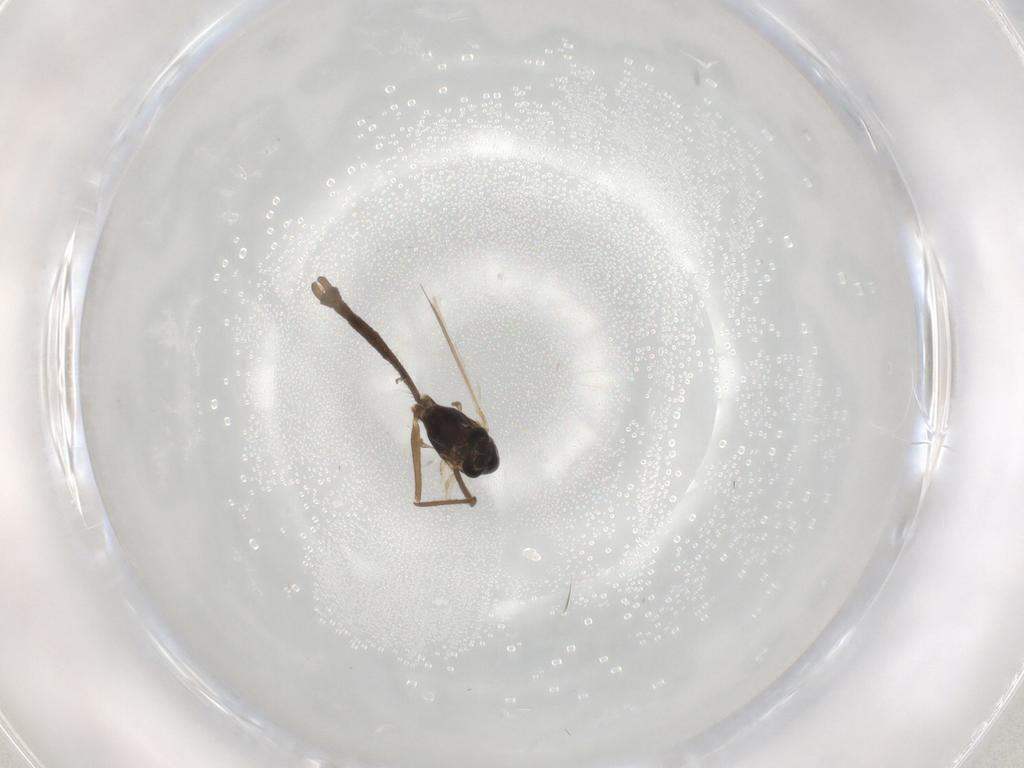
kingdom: Animalia
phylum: Arthropoda
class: Insecta
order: Diptera
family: Chironomidae
